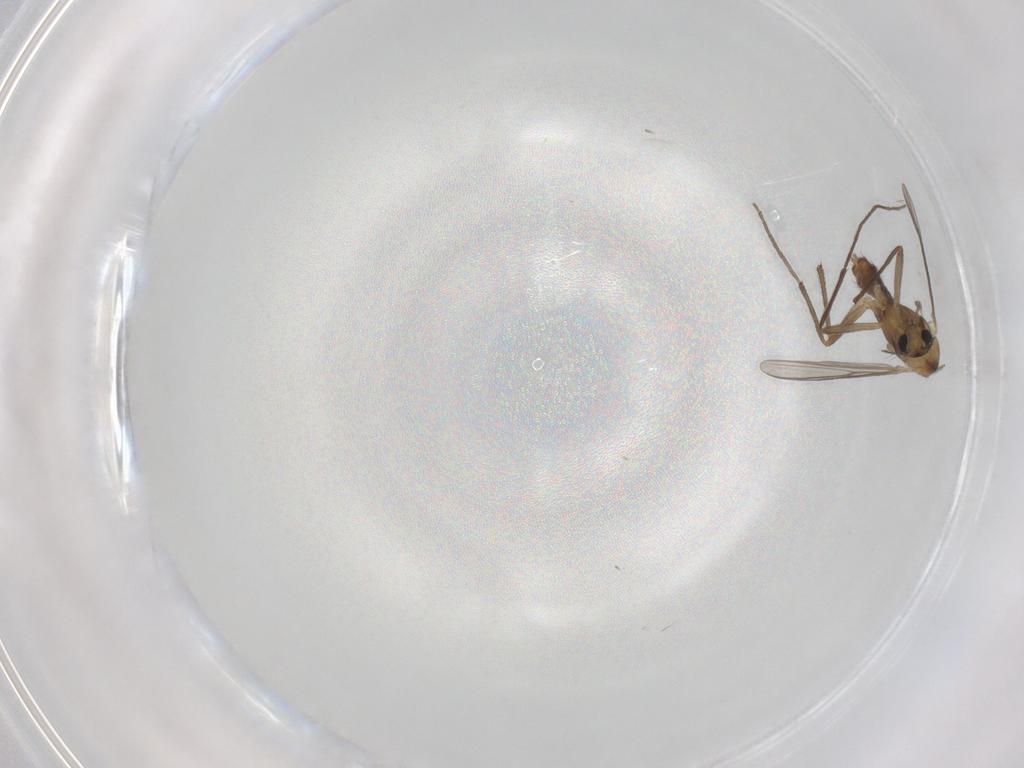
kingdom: Animalia
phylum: Arthropoda
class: Insecta
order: Diptera
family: Chironomidae
